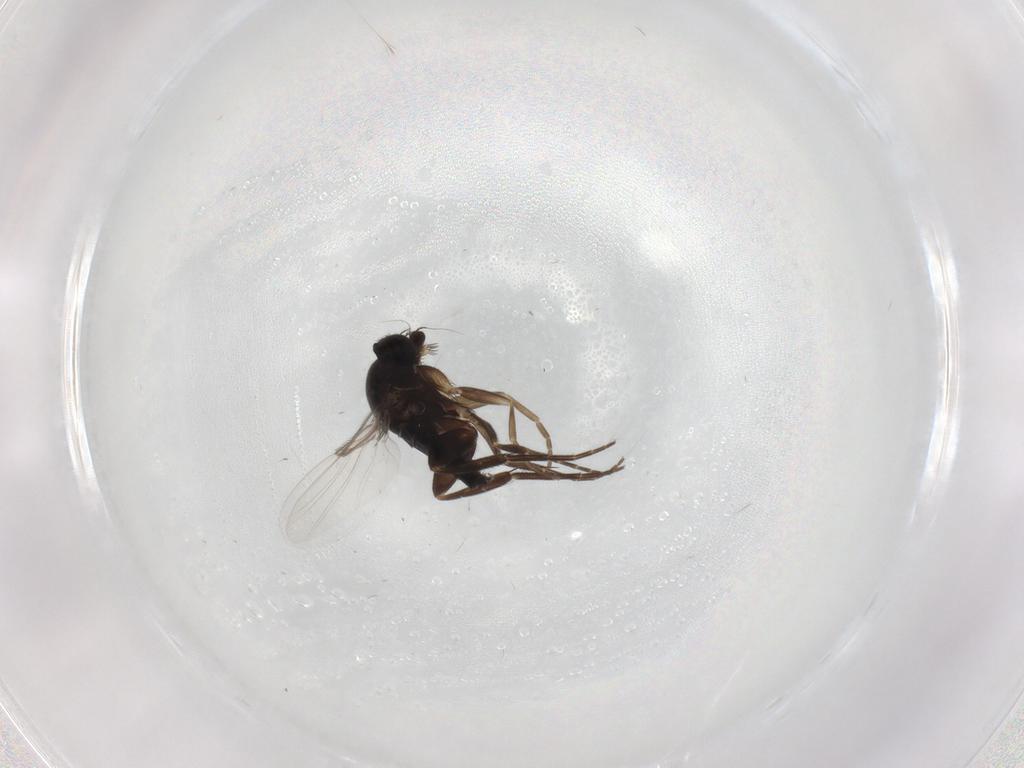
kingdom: Animalia
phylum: Arthropoda
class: Insecta
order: Diptera
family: Phoridae
